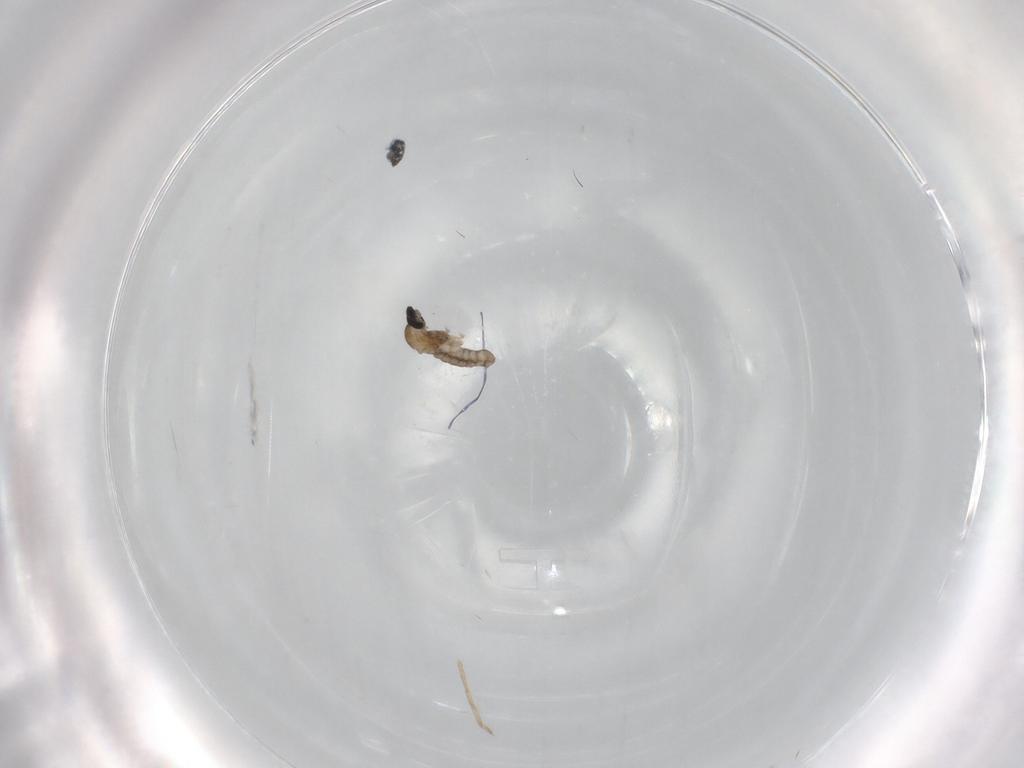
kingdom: Animalia
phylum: Arthropoda
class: Insecta
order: Diptera
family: Cecidomyiidae
